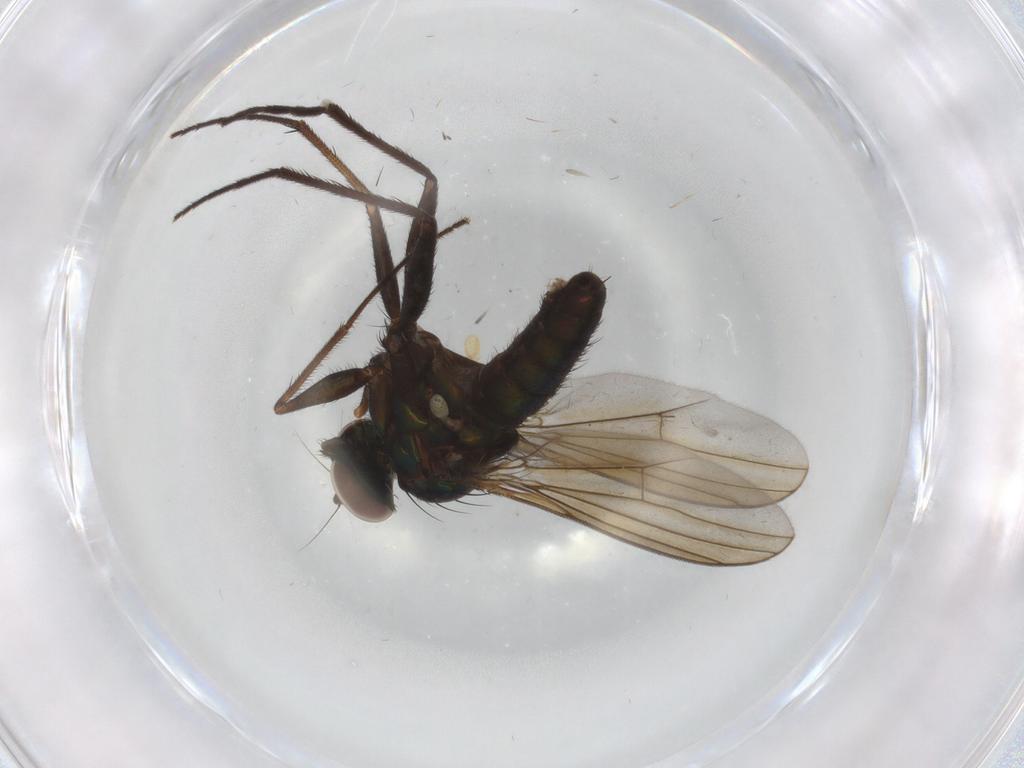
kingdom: Animalia
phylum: Arthropoda
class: Insecta
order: Diptera
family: Dolichopodidae
